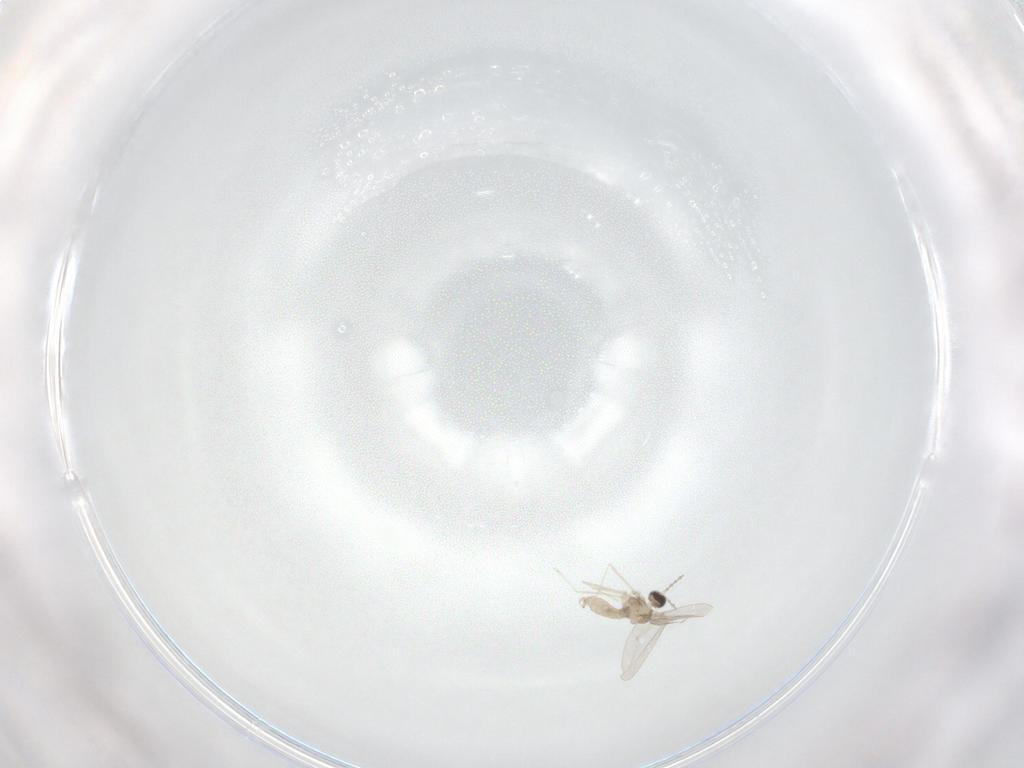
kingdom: Animalia
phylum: Arthropoda
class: Insecta
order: Diptera
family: Cecidomyiidae
